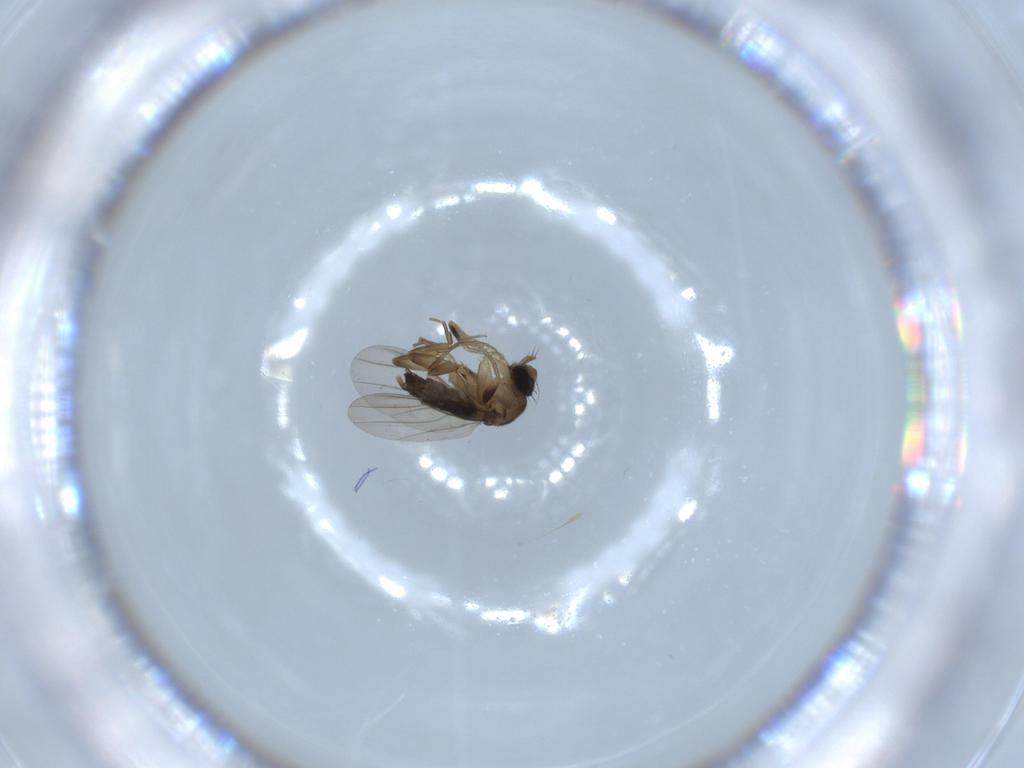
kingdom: Animalia
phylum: Arthropoda
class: Insecta
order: Diptera
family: Phoridae
